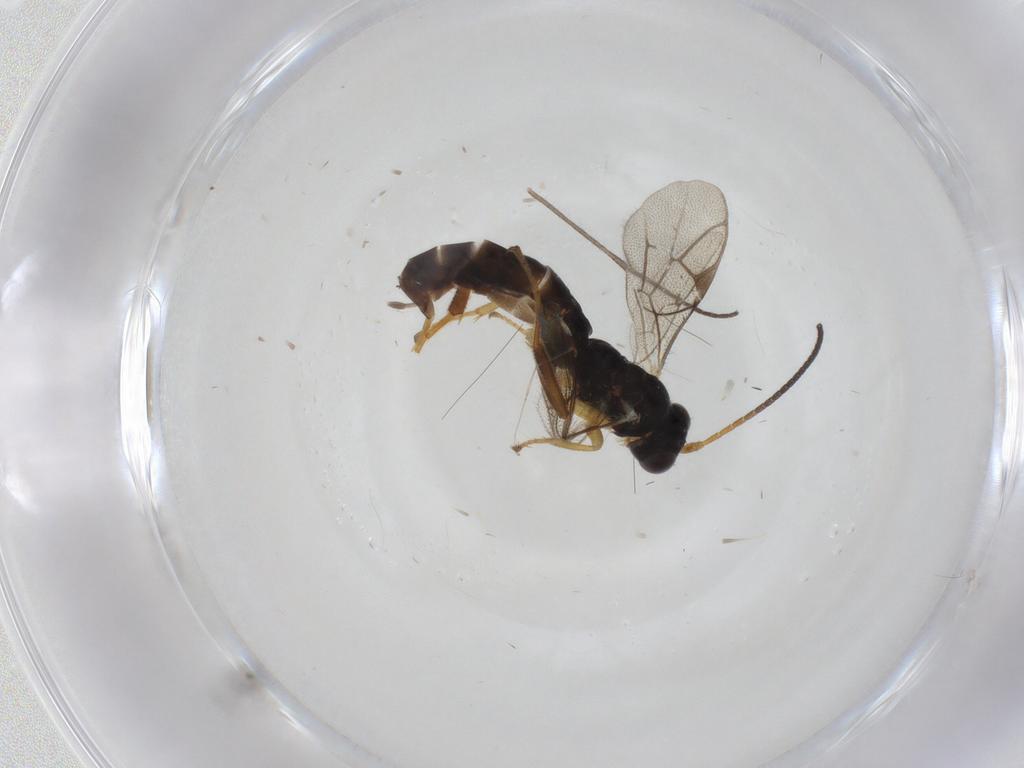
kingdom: Animalia
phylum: Arthropoda
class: Insecta
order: Hymenoptera
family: Ichneumonidae
